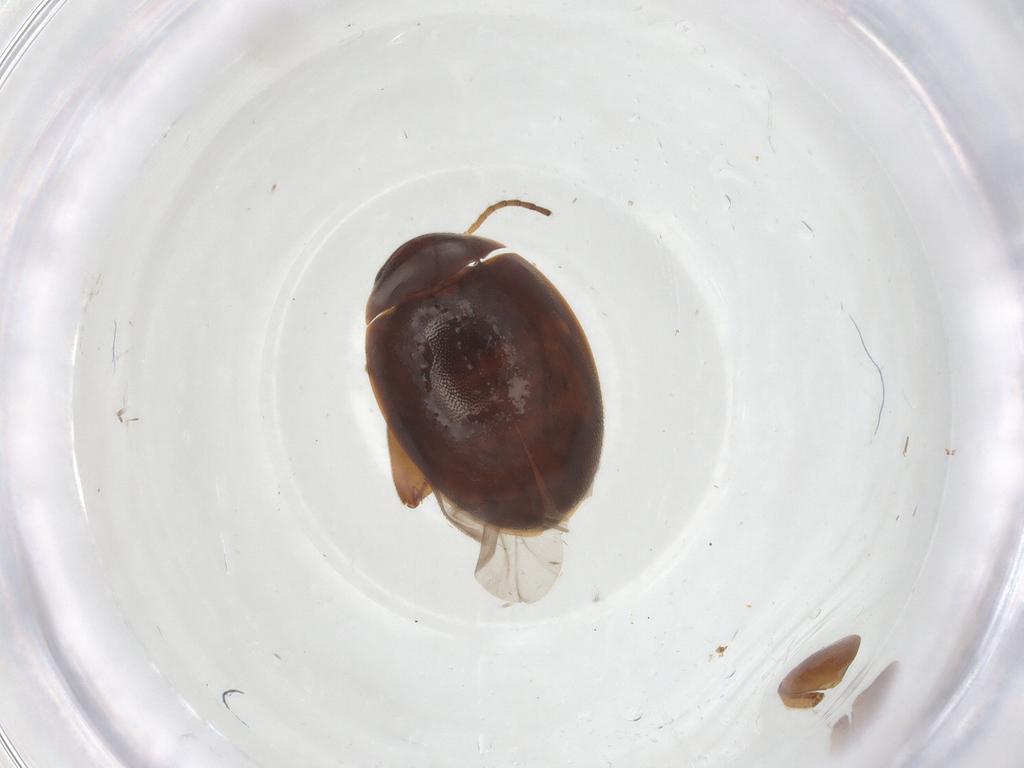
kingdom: Animalia
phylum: Arthropoda
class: Insecta
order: Coleoptera
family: Scirtidae
